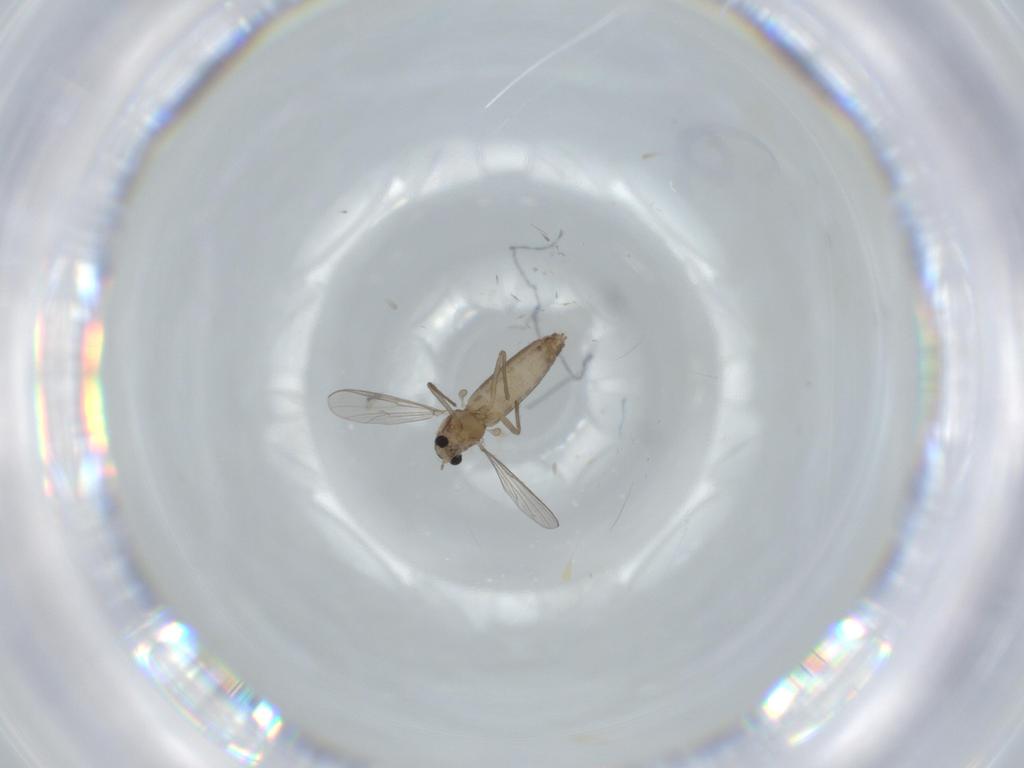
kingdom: Animalia
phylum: Arthropoda
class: Insecta
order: Diptera
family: Chironomidae
